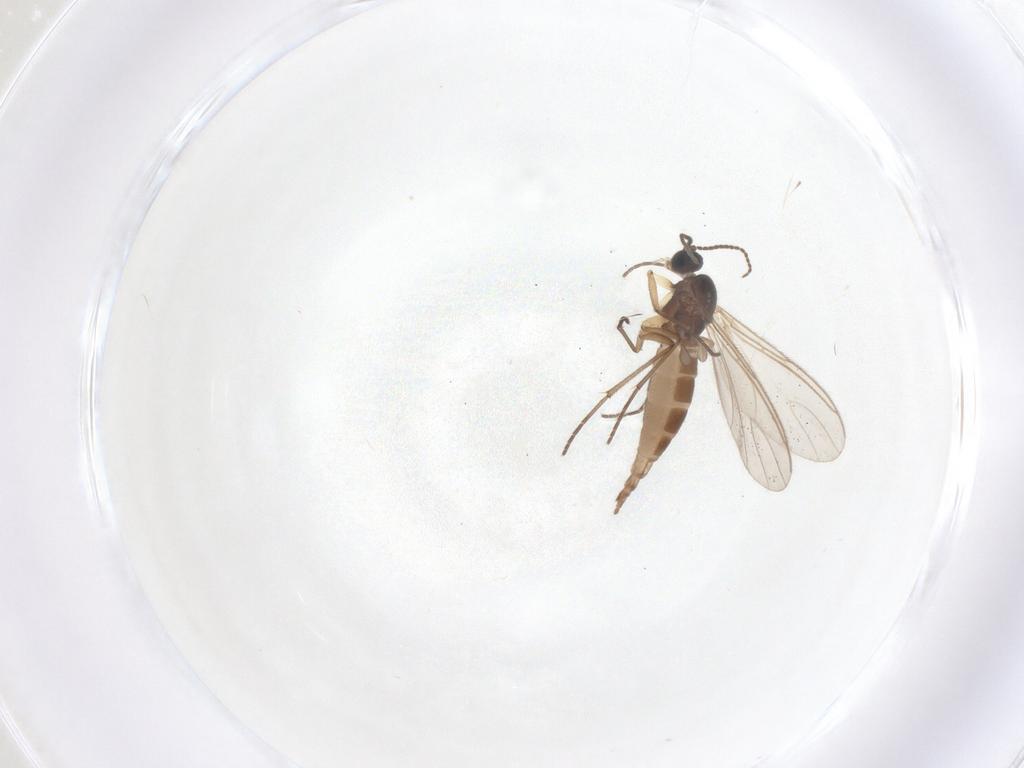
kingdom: Animalia
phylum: Arthropoda
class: Insecta
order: Diptera
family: Sciaridae
